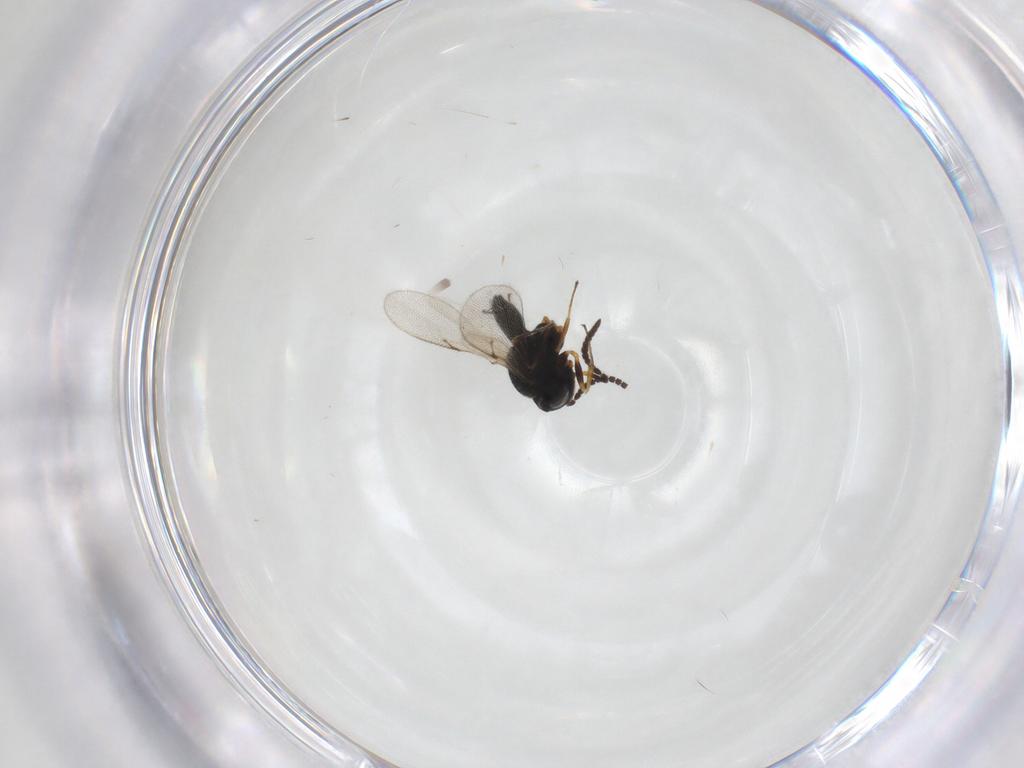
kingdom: Animalia
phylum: Arthropoda
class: Insecta
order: Hymenoptera
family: Scelionidae
